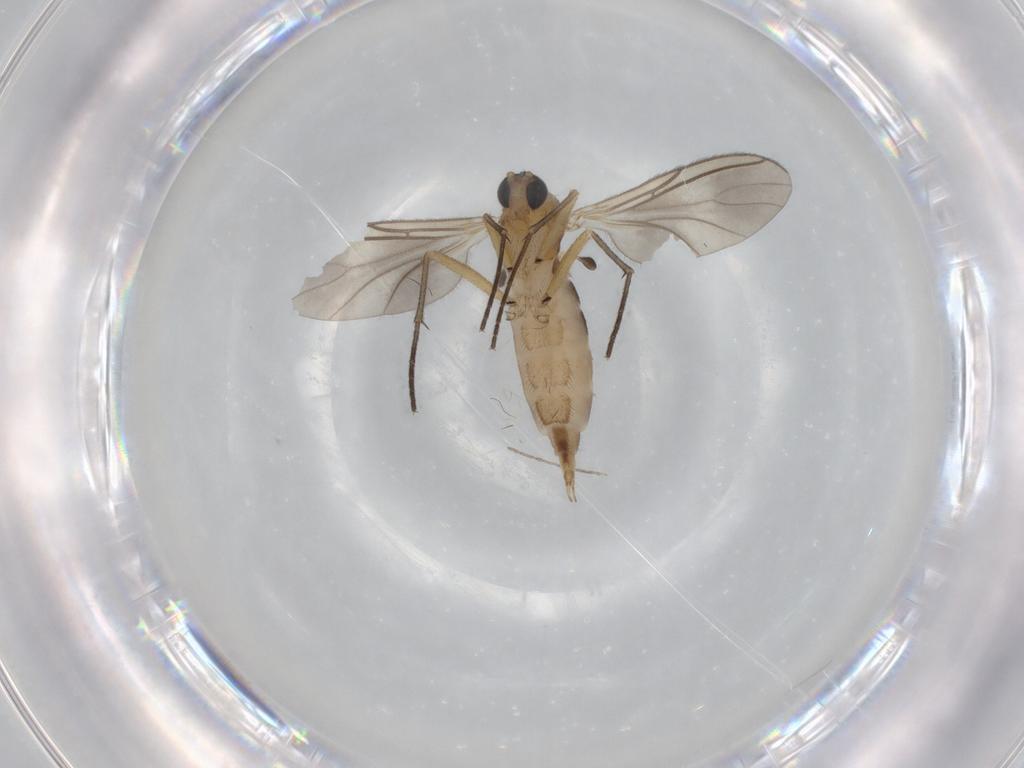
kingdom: Animalia
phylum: Arthropoda
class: Insecta
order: Diptera
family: Sciaridae
